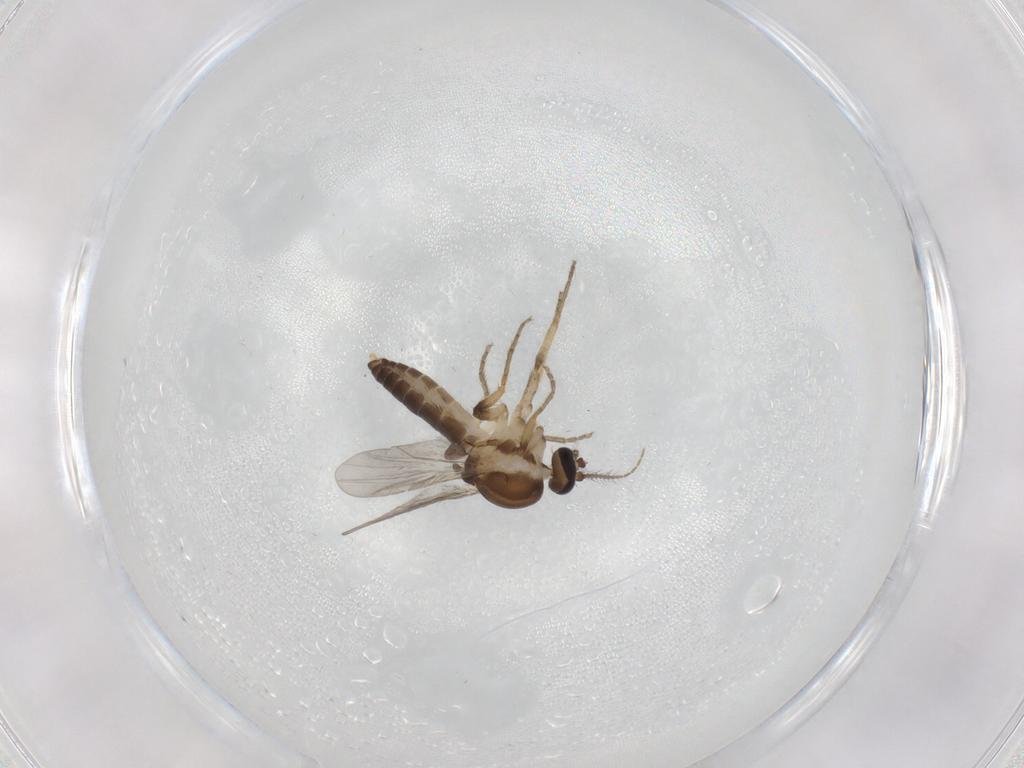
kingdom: Animalia
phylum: Arthropoda
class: Insecta
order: Diptera
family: Ceratopogonidae
